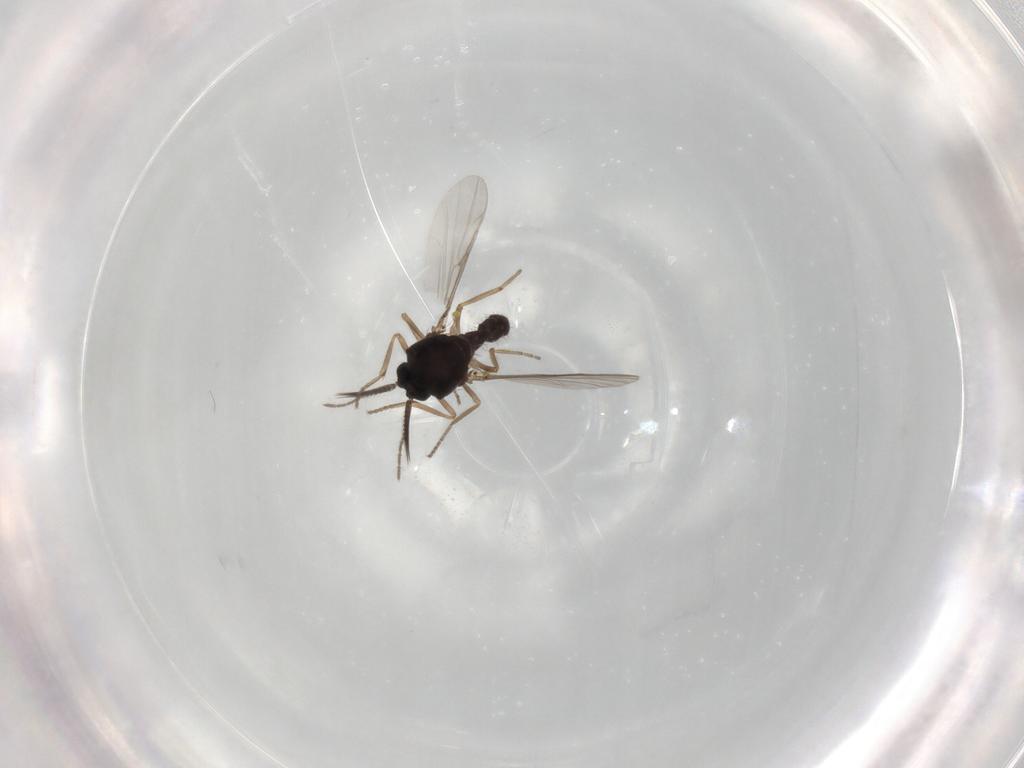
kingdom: Animalia
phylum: Arthropoda
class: Insecta
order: Diptera
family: Ceratopogonidae
